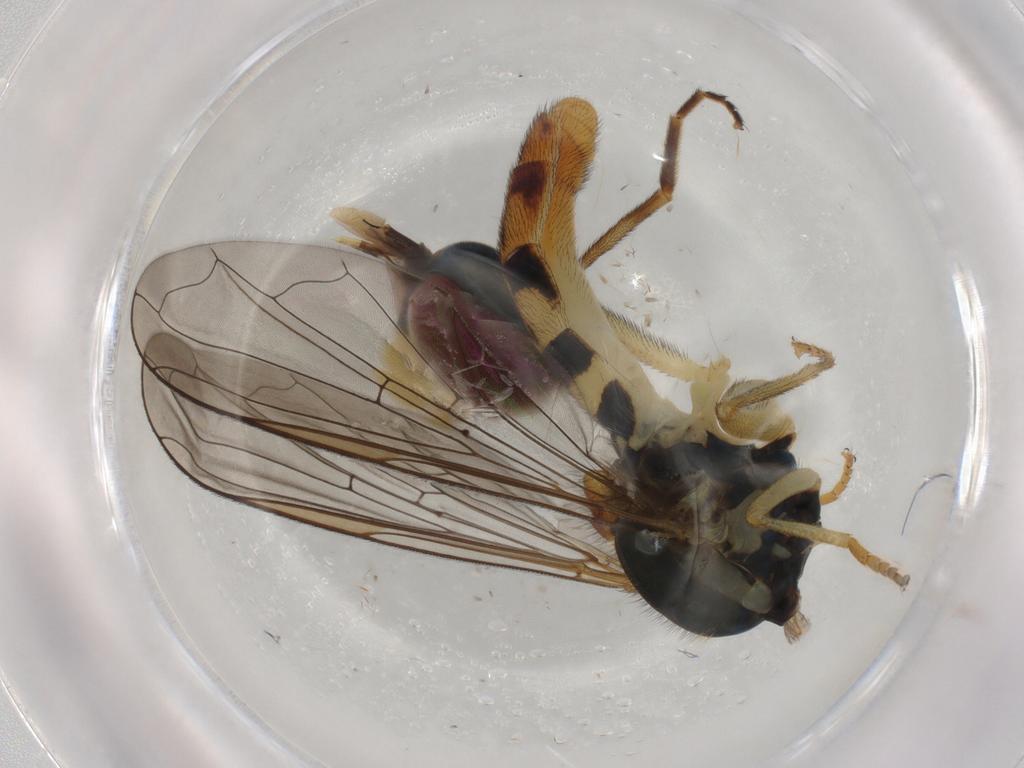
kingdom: Animalia
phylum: Arthropoda
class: Insecta
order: Diptera
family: Syrphidae
